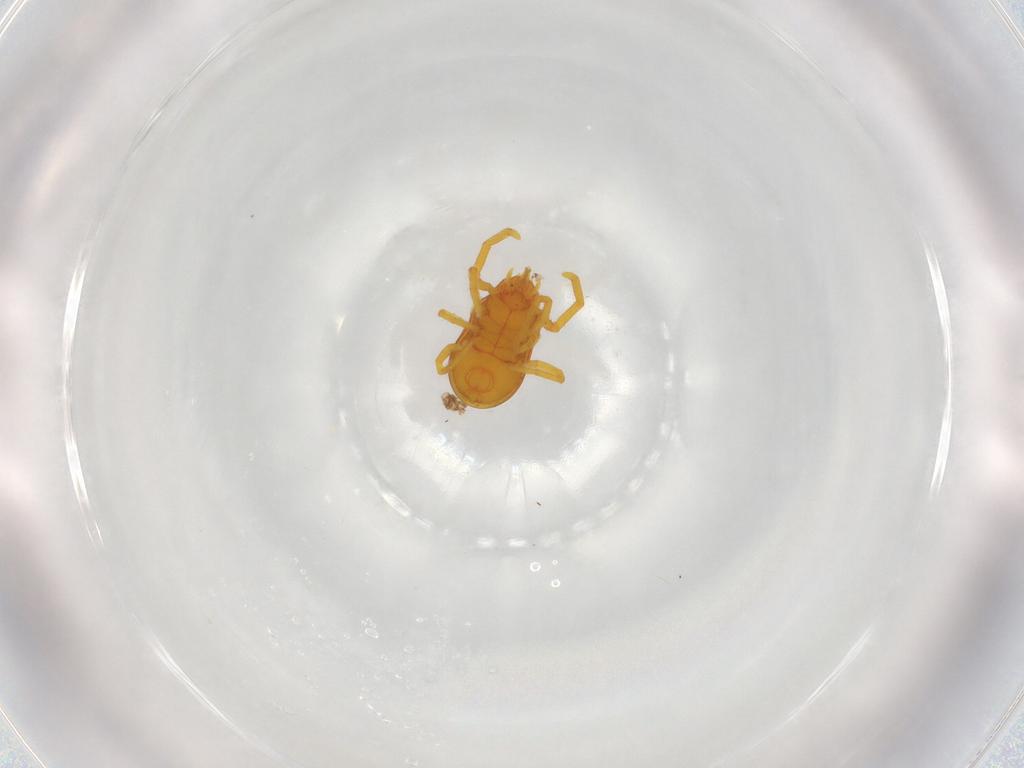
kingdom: Animalia
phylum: Arthropoda
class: Arachnida
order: Trombidiformes
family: Labidostommidae
